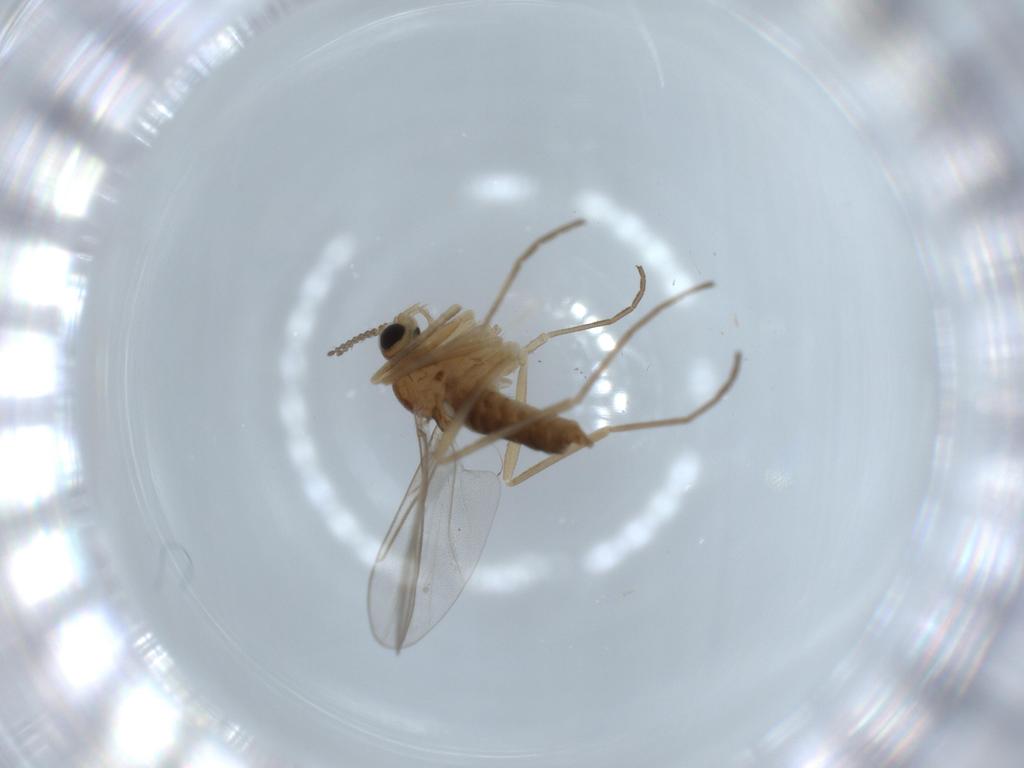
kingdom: Animalia
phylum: Arthropoda
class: Insecta
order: Diptera
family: Cecidomyiidae
